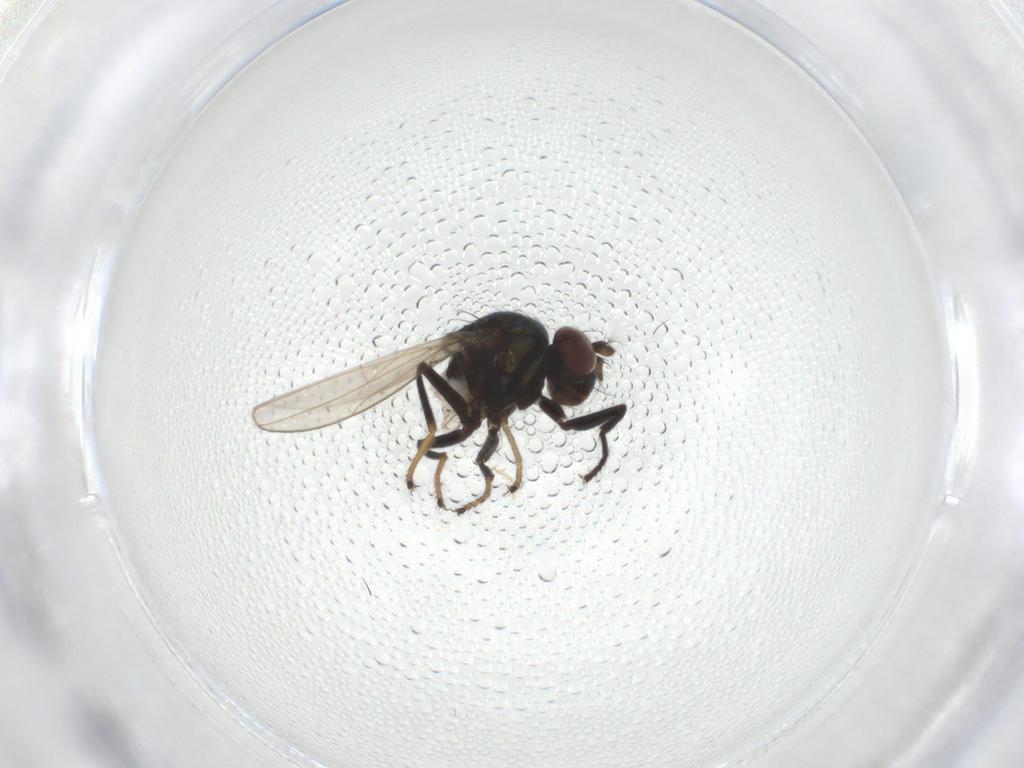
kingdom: Animalia
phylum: Arthropoda
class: Insecta
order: Diptera
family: Ephydridae
